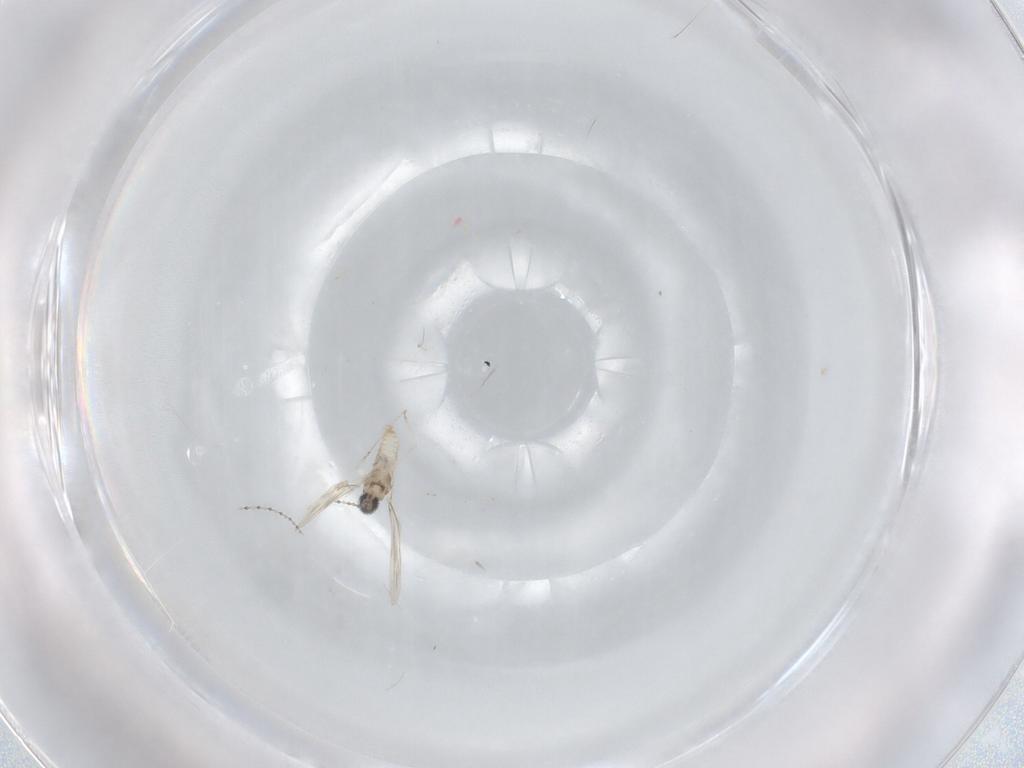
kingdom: Animalia
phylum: Arthropoda
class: Insecta
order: Diptera
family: Cecidomyiidae
